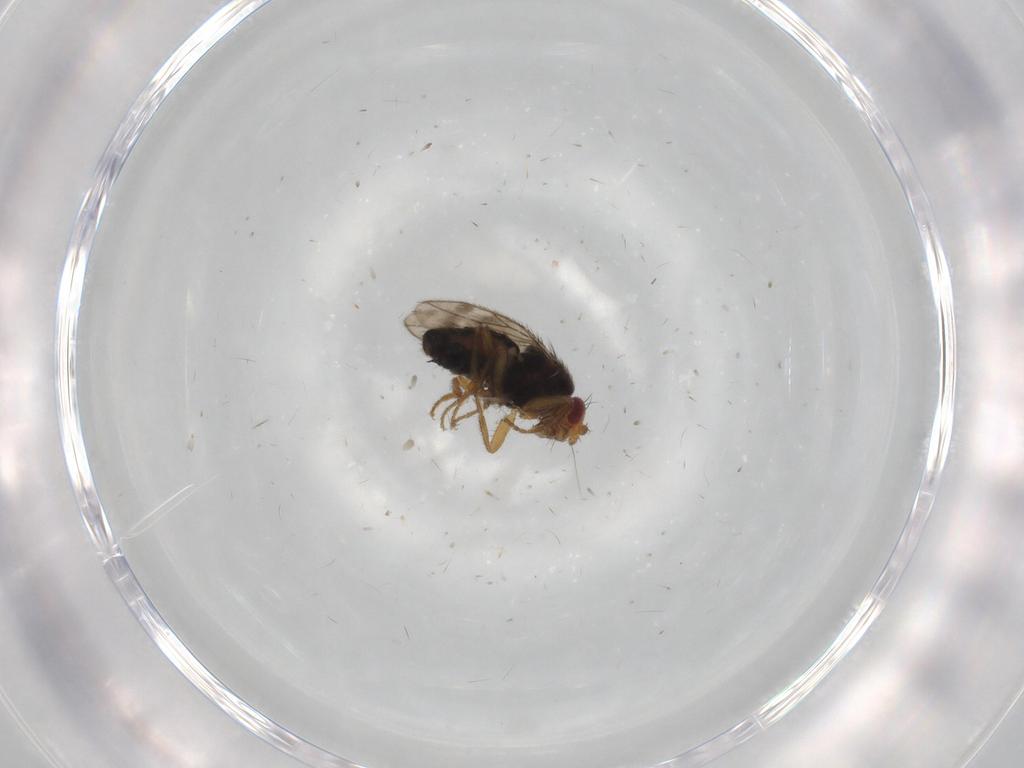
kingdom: Animalia
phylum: Arthropoda
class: Insecta
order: Diptera
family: Sphaeroceridae
